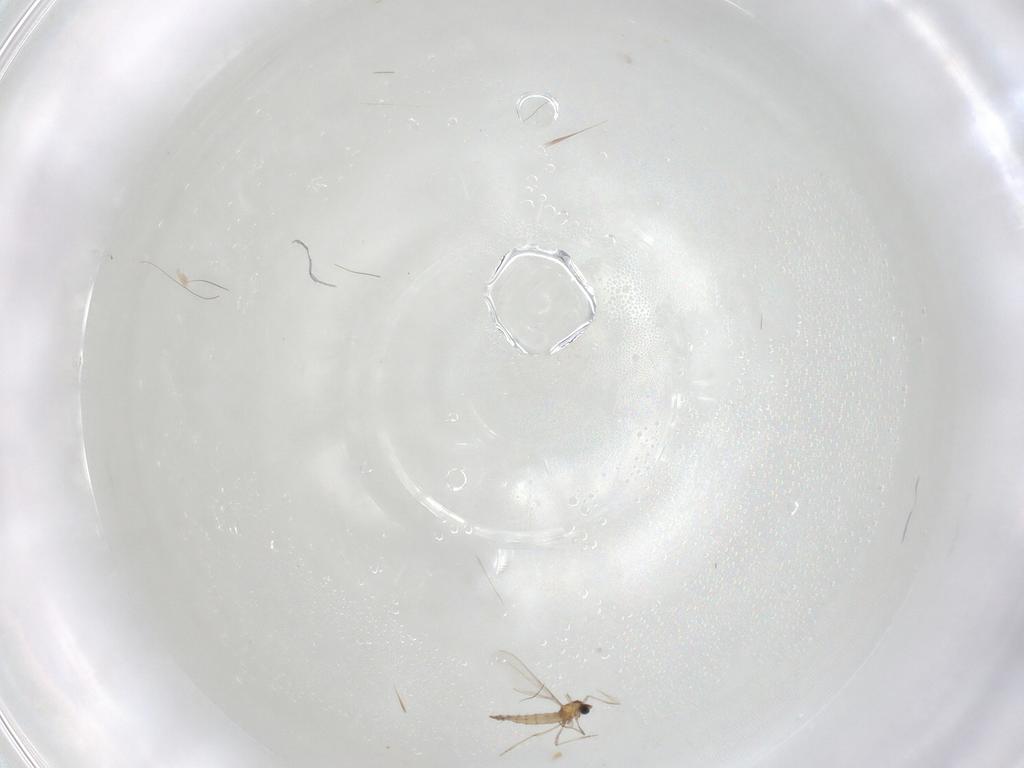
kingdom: Animalia
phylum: Arthropoda
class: Insecta
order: Diptera
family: Cecidomyiidae
